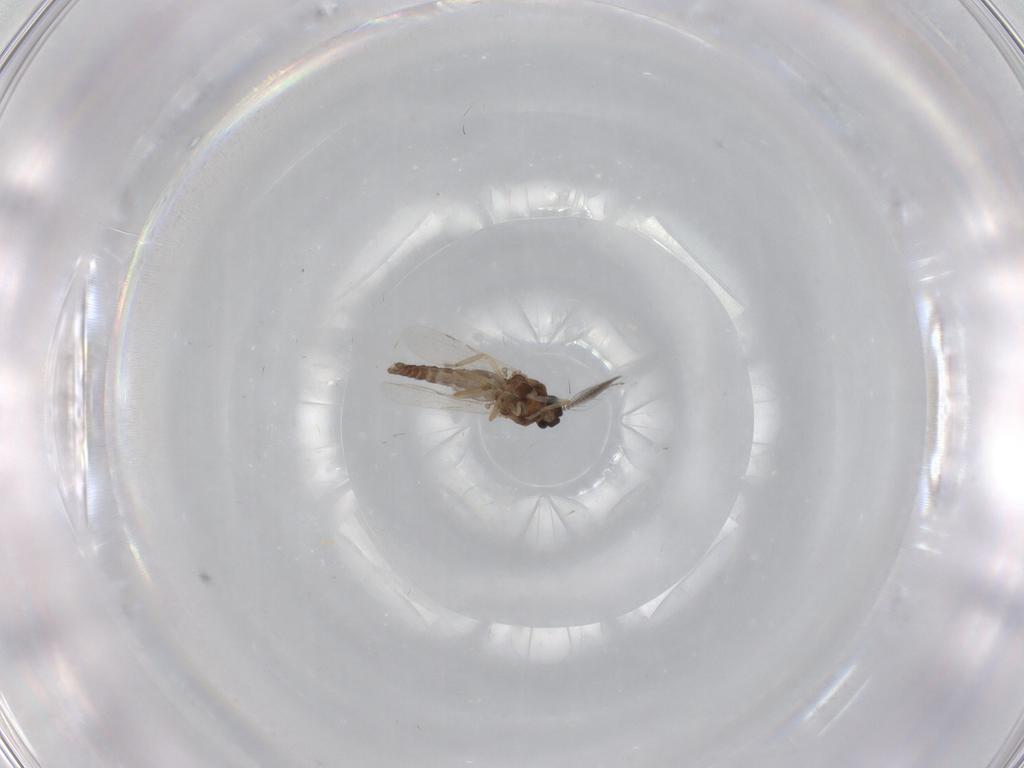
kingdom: Animalia
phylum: Arthropoda
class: Insecta
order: Diptera
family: Ceratopogonidae
